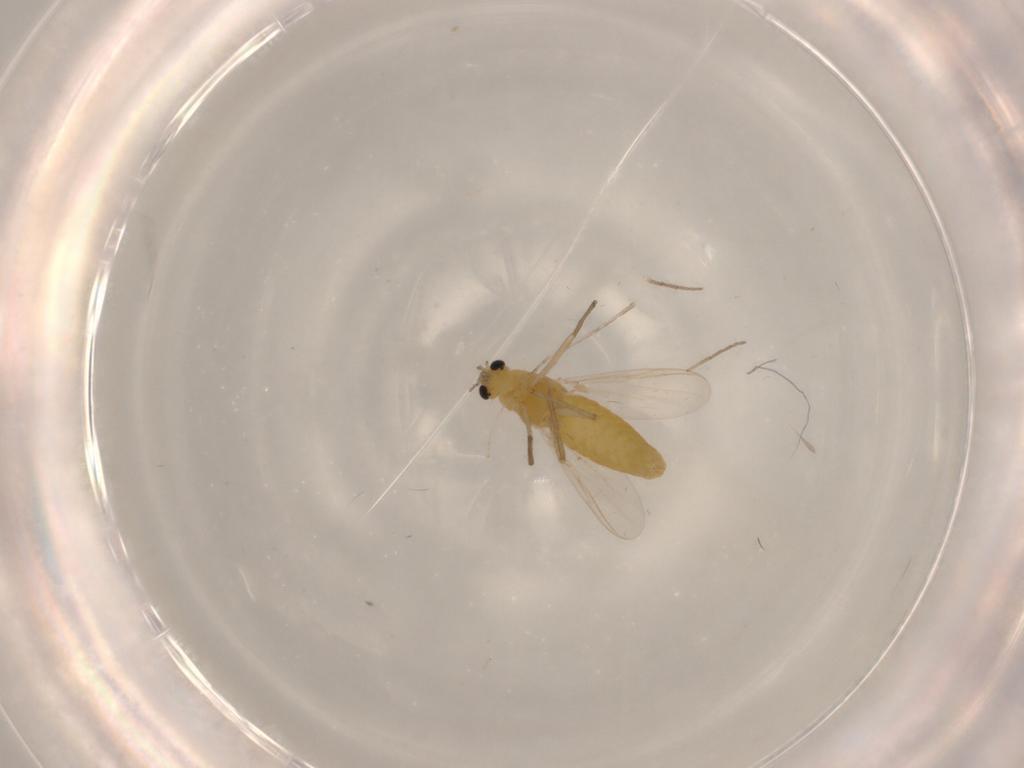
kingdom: Animalia
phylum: Arthropoda
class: Insecta
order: Diptera
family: Chironomidae
